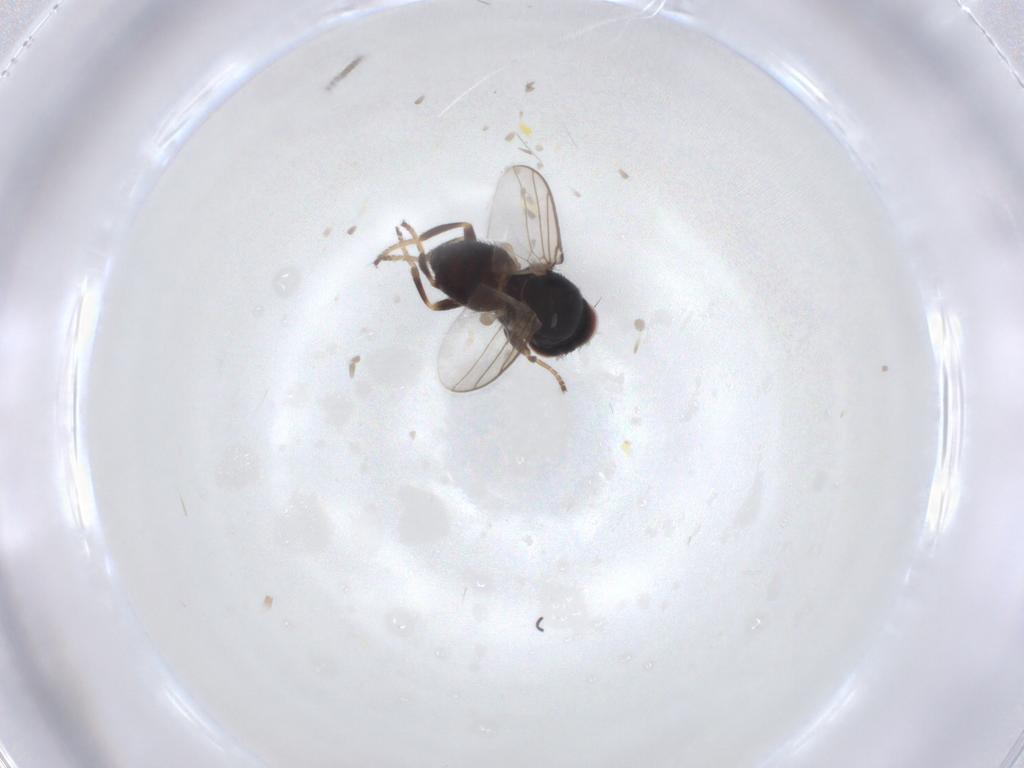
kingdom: Animalia
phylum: Arthropoda
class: Insecta
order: Diptera
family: Chloropidae
